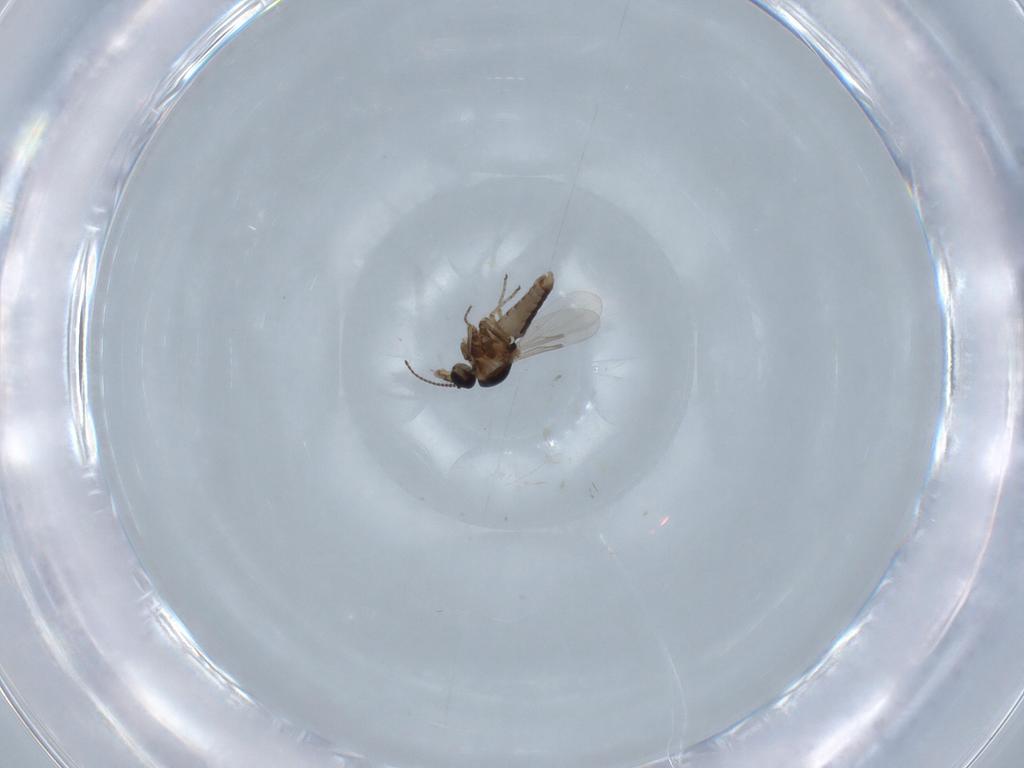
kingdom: Animalia
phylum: Arthropoda
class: Insecta
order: Diptera
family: Ceratopogonidae
